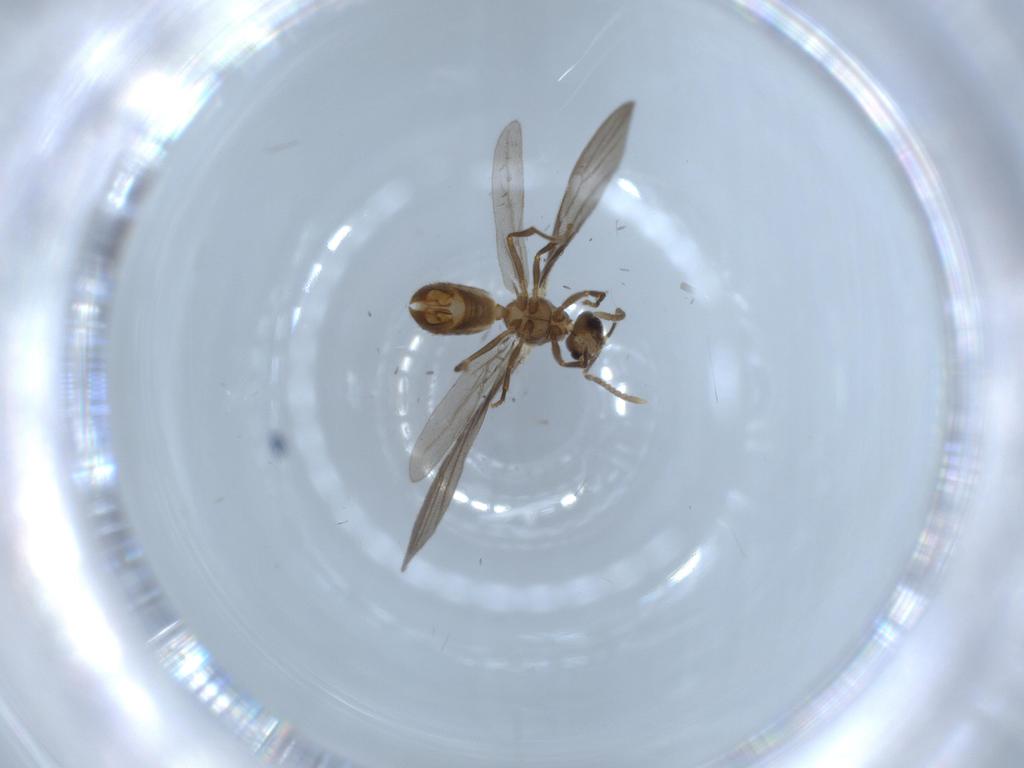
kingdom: Animalia
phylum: Arthropoda
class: Insecta
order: Hymenoptera
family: Formicidae
